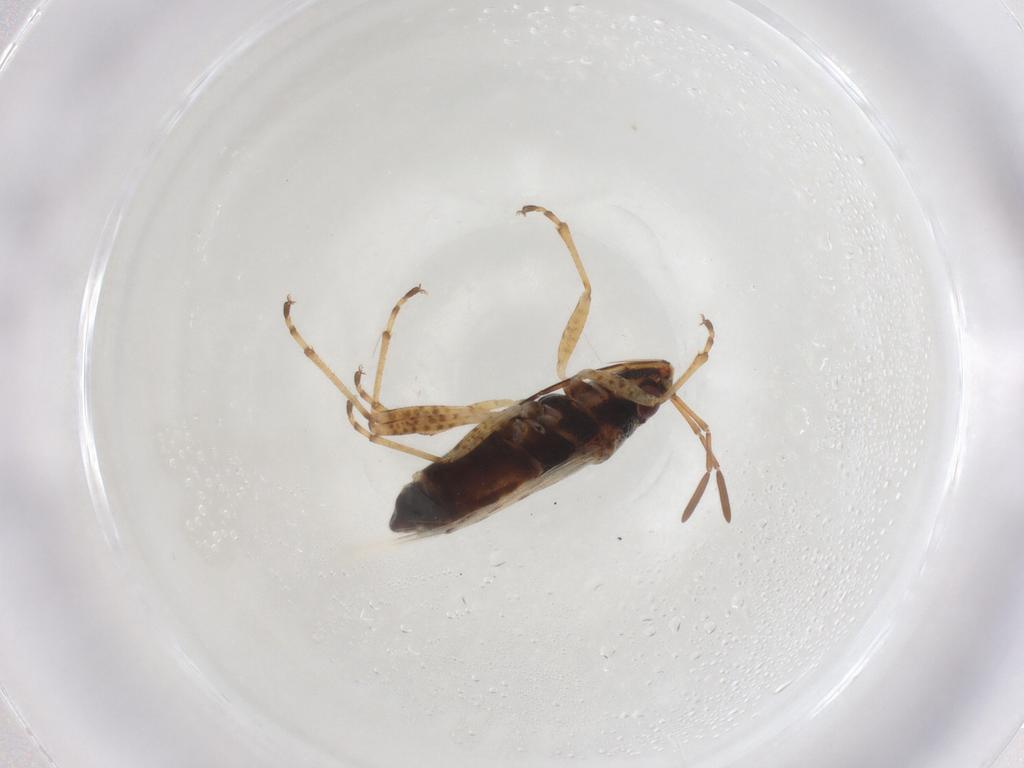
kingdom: Animalia
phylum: Arthropoda
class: Insecta
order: Hemiptera
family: Lygaeidae
